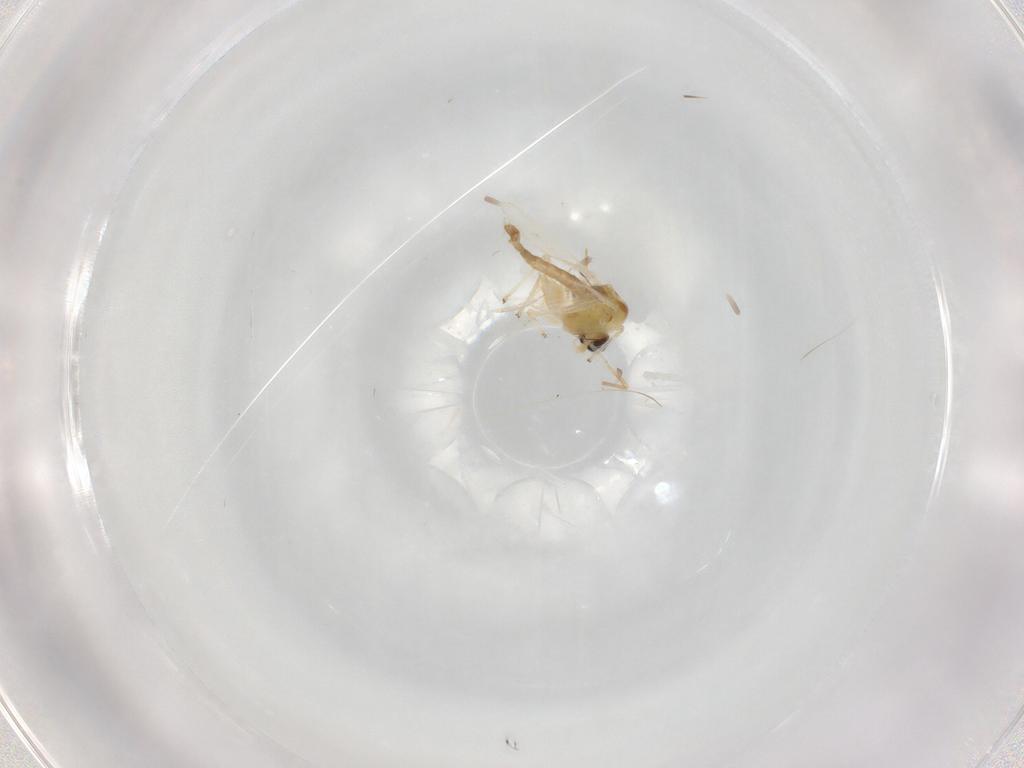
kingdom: Animalia
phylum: Arthropoda
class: Insecta
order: Diptera
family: Chironomidae
